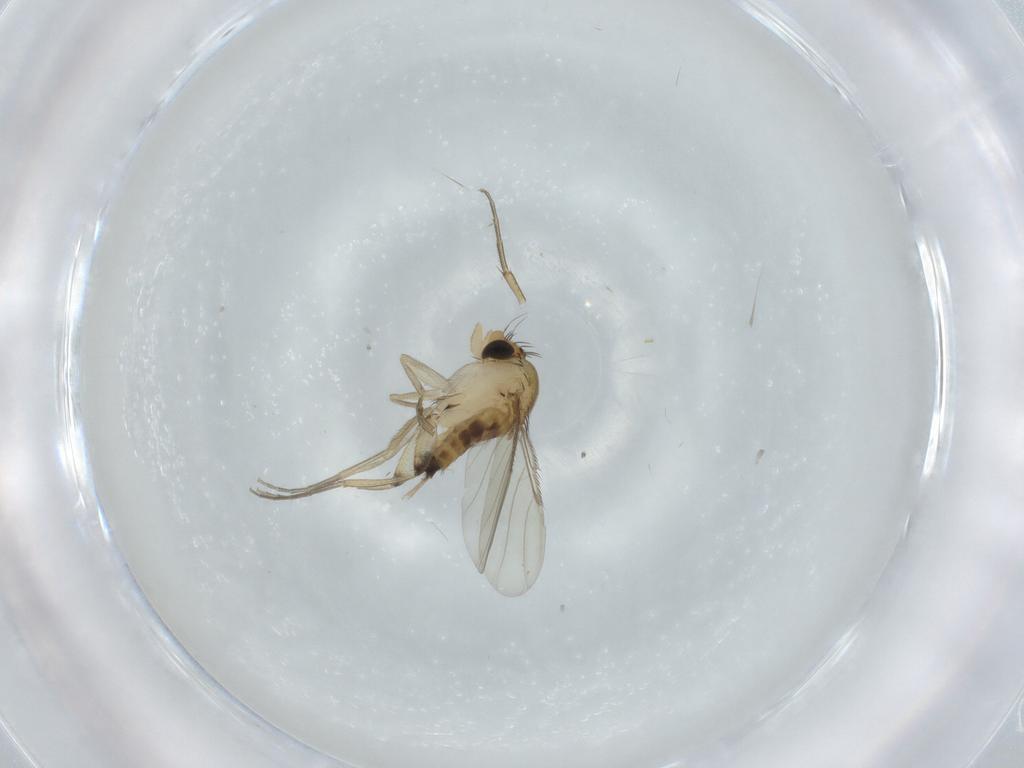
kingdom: Animalia
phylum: Arthropoda
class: Insecta
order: Diptera
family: Phoridae
